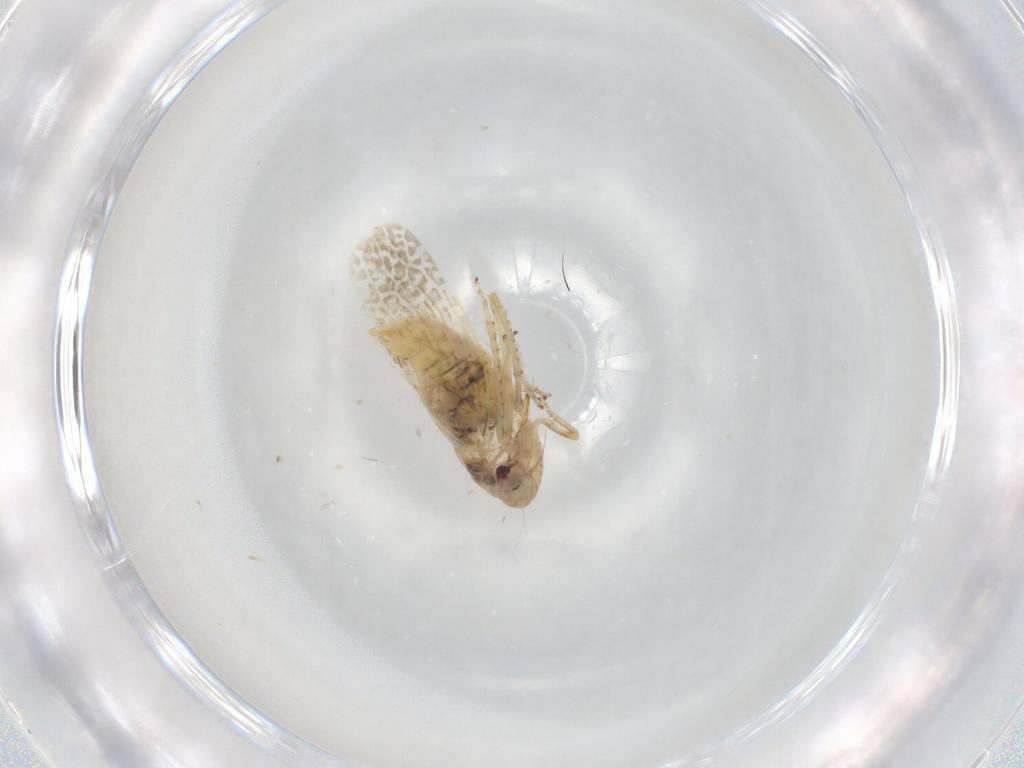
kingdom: Animalia
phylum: Arthropoda
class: Insecta
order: Hemiptera
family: Cicadellidae
